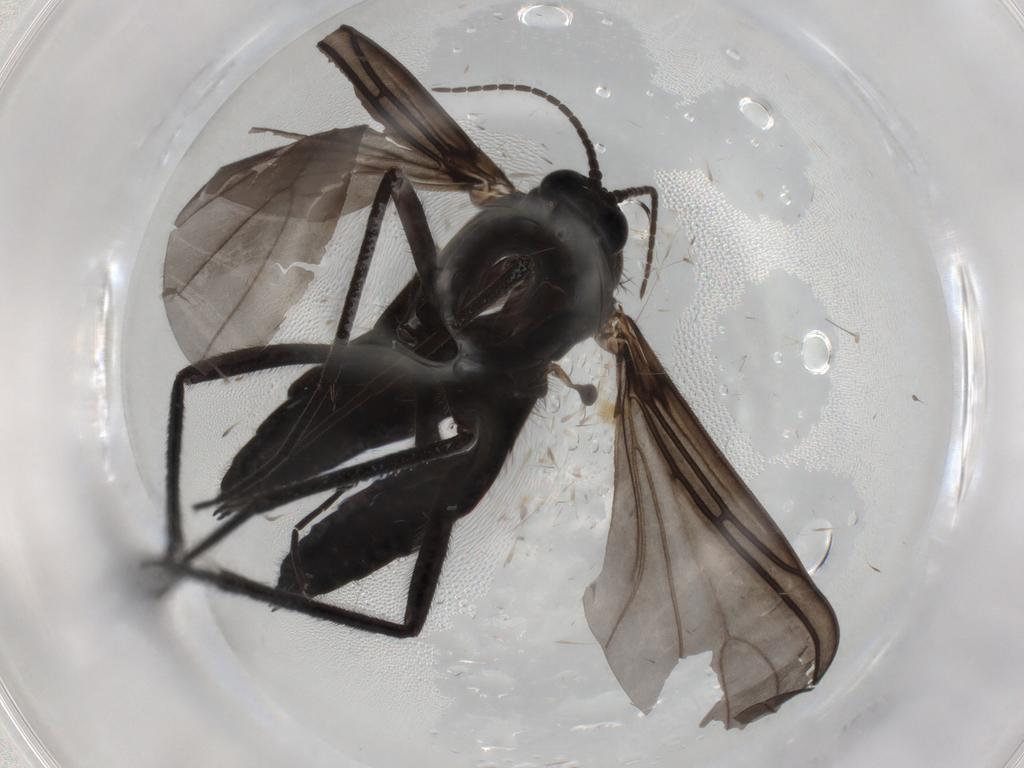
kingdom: Animalia
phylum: Arthropoda
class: Insecta
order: Diptera
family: Sciaridae
